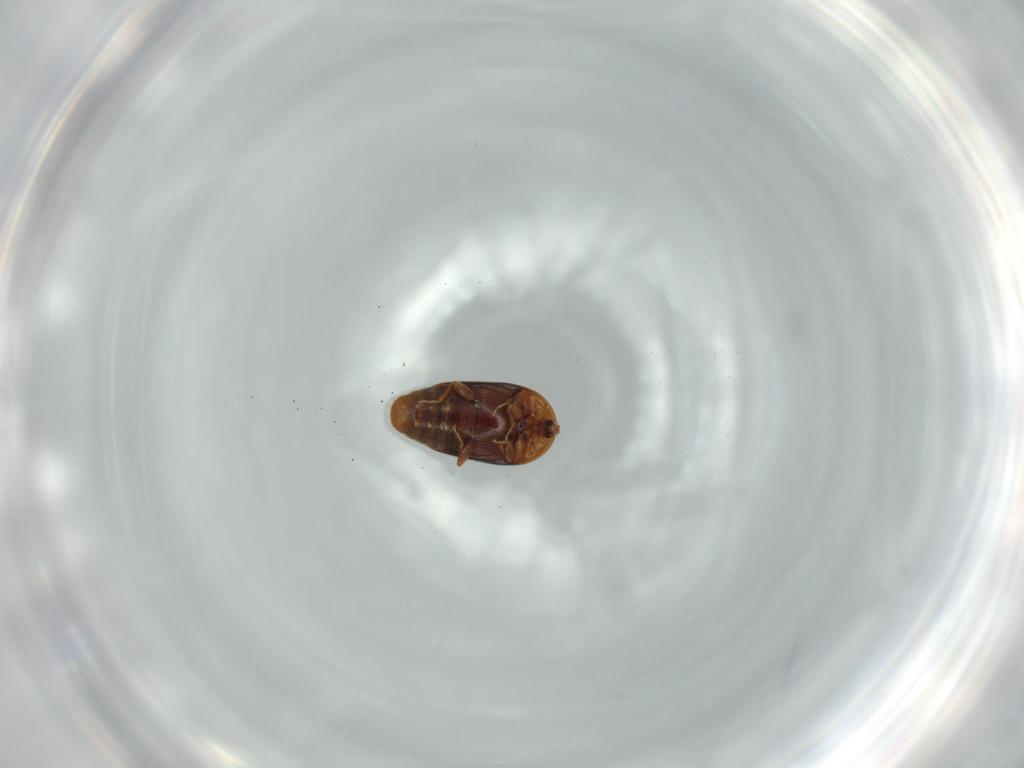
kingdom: Animalia
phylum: Arthropoda
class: Insecta
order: Coleoptera
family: Corylophidae
